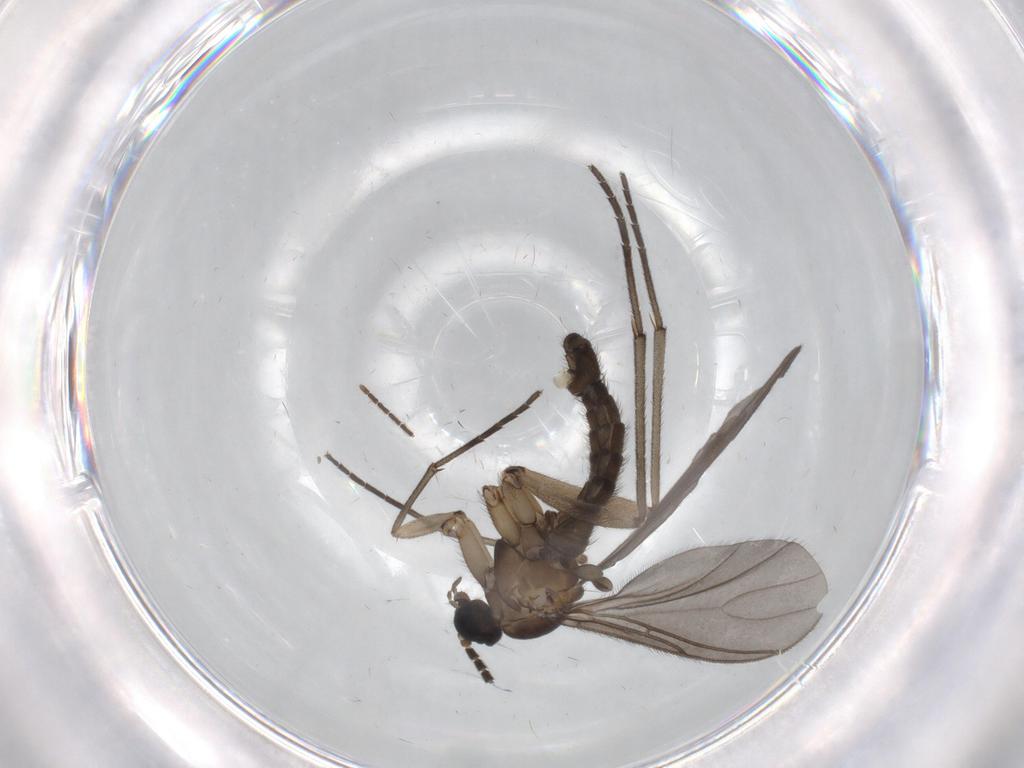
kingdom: Animalia
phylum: Arthropoda
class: Insecta
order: Diptera
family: Sciaridae
